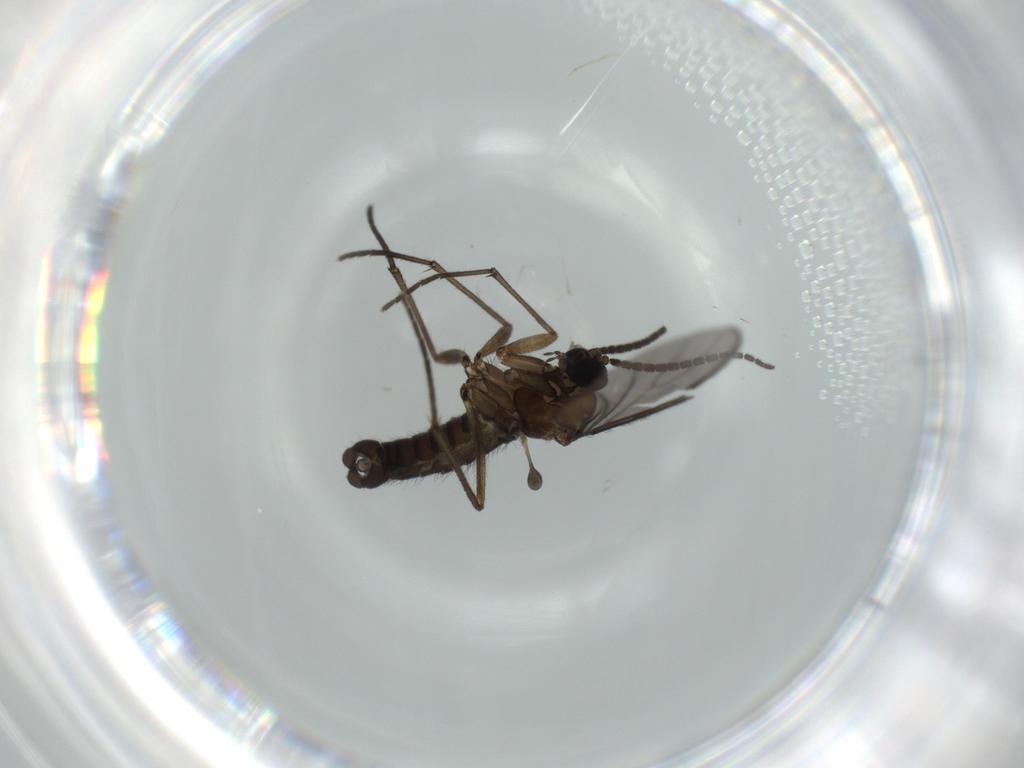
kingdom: Animalia
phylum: Arthropoda
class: Insecta
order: Diptera
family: Sciaridae
